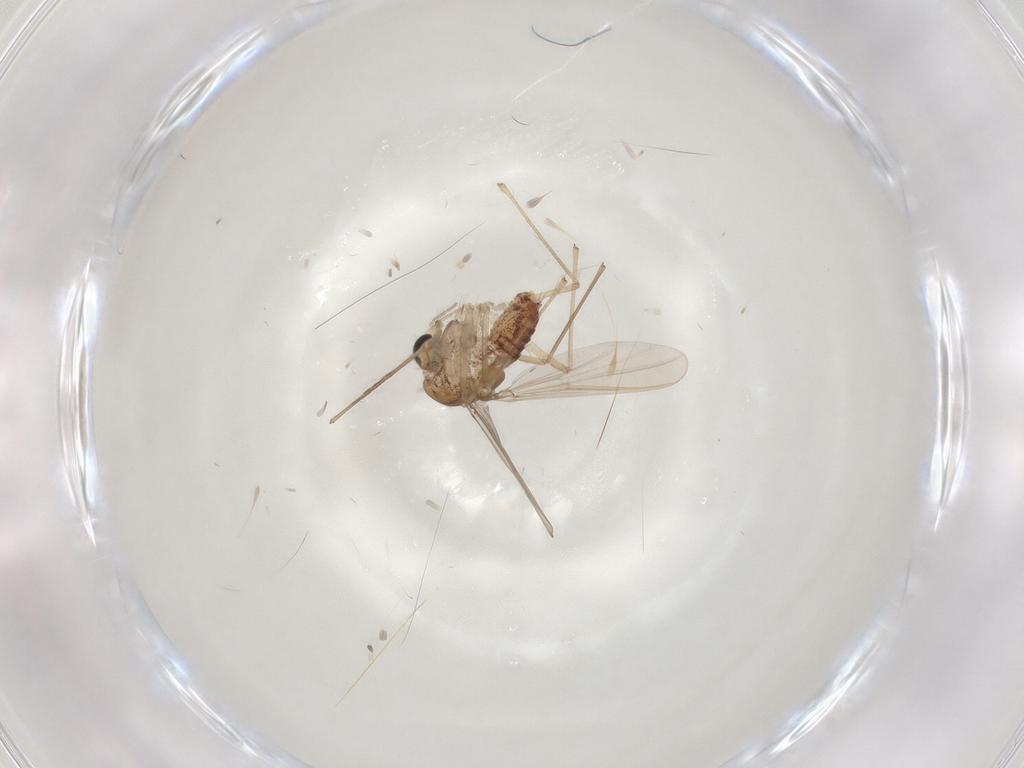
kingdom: Animalia
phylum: Arthropoda
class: Insecta
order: Diptera
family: Chironomidae
